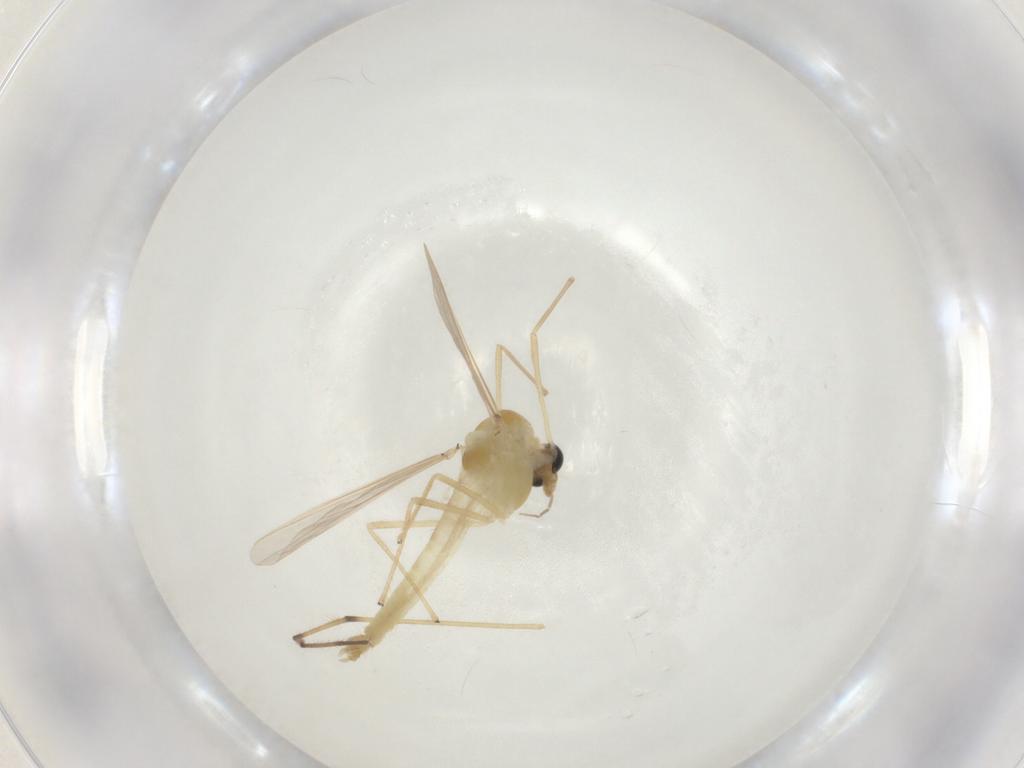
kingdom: Animalia
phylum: Arthropoda
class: Insecta
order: Diptera
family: Chironomidae
